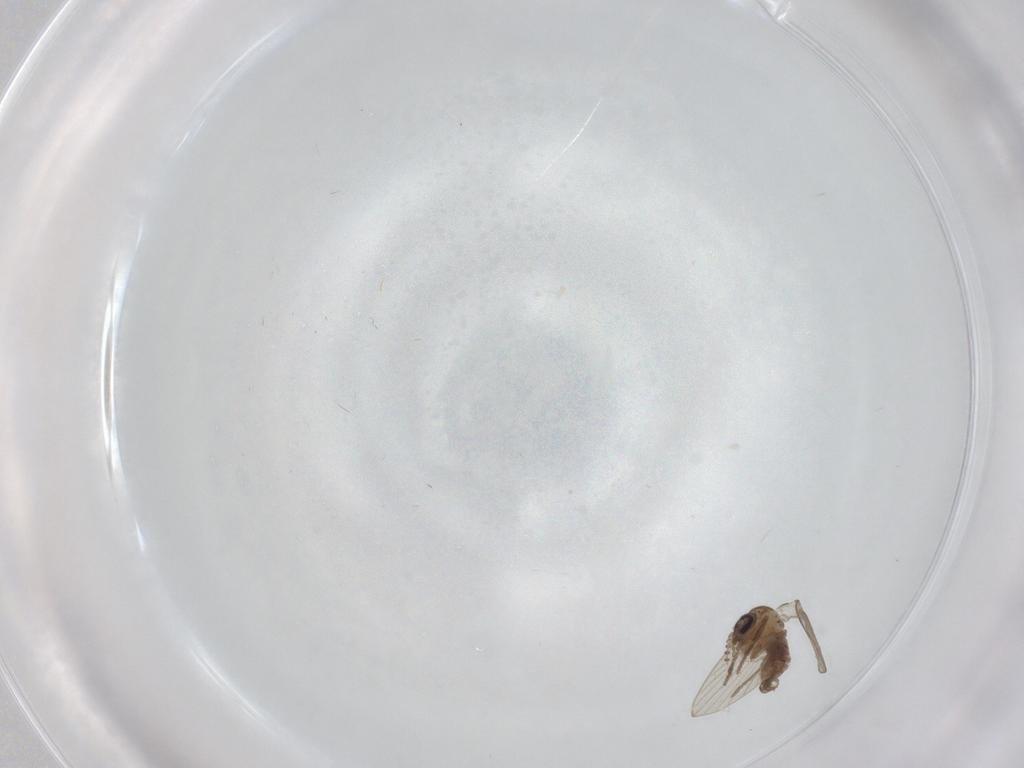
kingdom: Animalia
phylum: Arthropoda
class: Insecta
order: Diptera
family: Psychodidae
